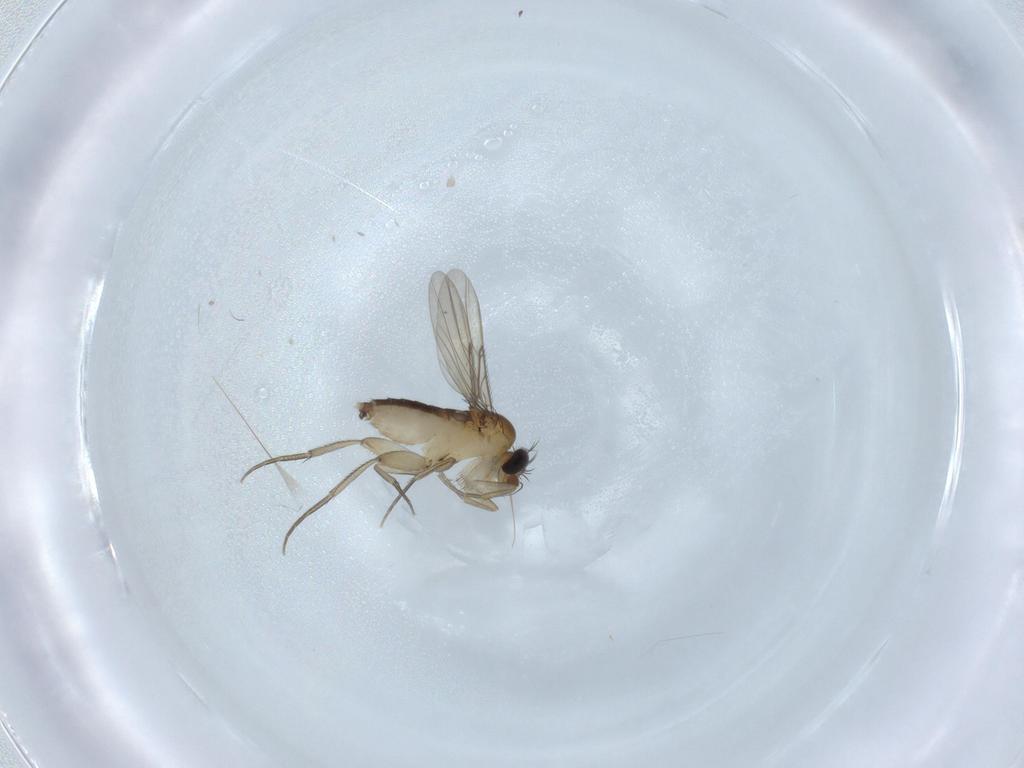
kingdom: Animalia
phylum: Arthropoda
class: Insecta
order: Diptera
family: Phoridae
